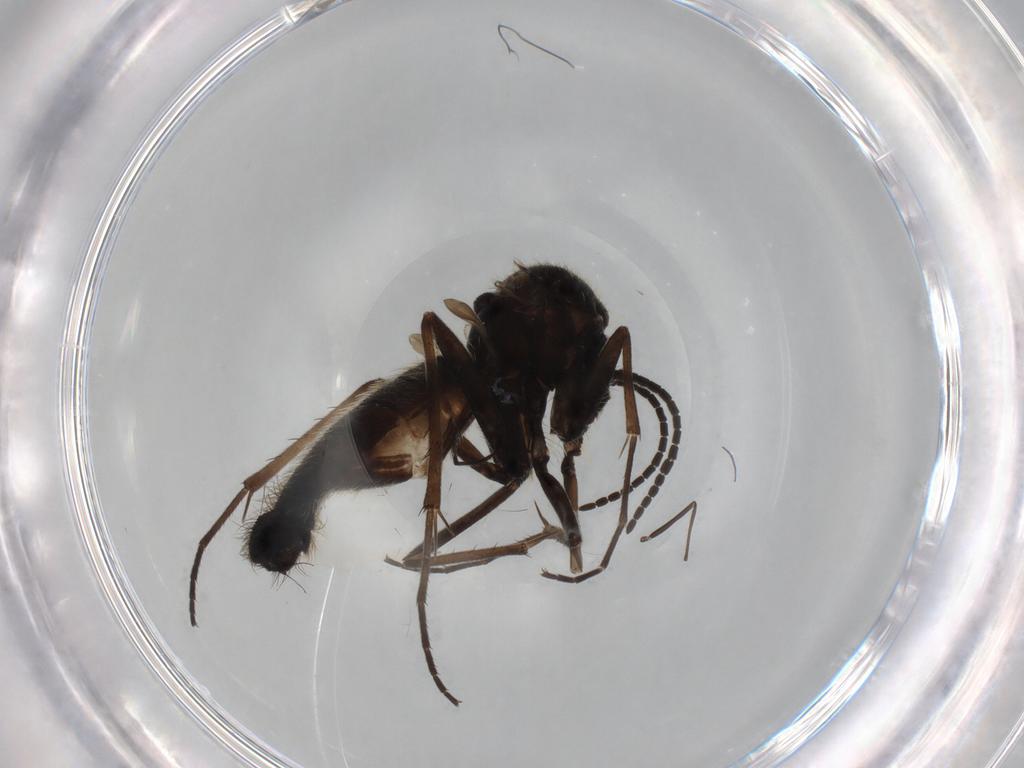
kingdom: Animalia
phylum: Arthropoda
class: Insecta
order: Diptera
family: Chironomidae
